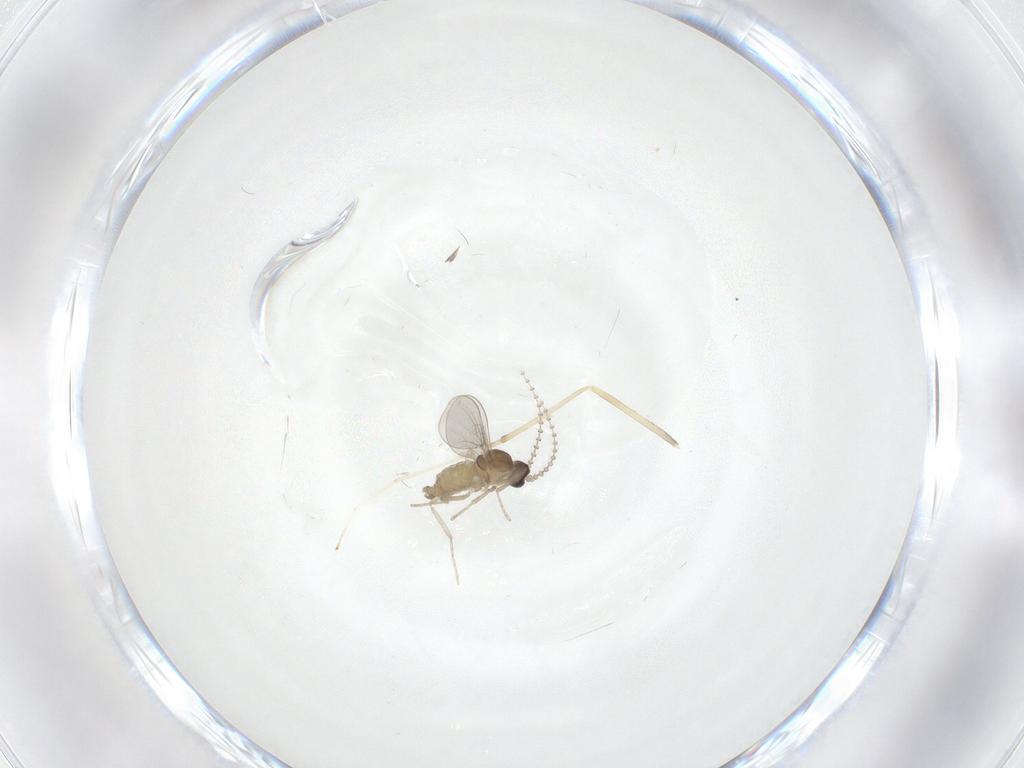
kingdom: Animalia
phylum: Arthropoda
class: Insecta
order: Diptera
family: Cecidomyiidae
